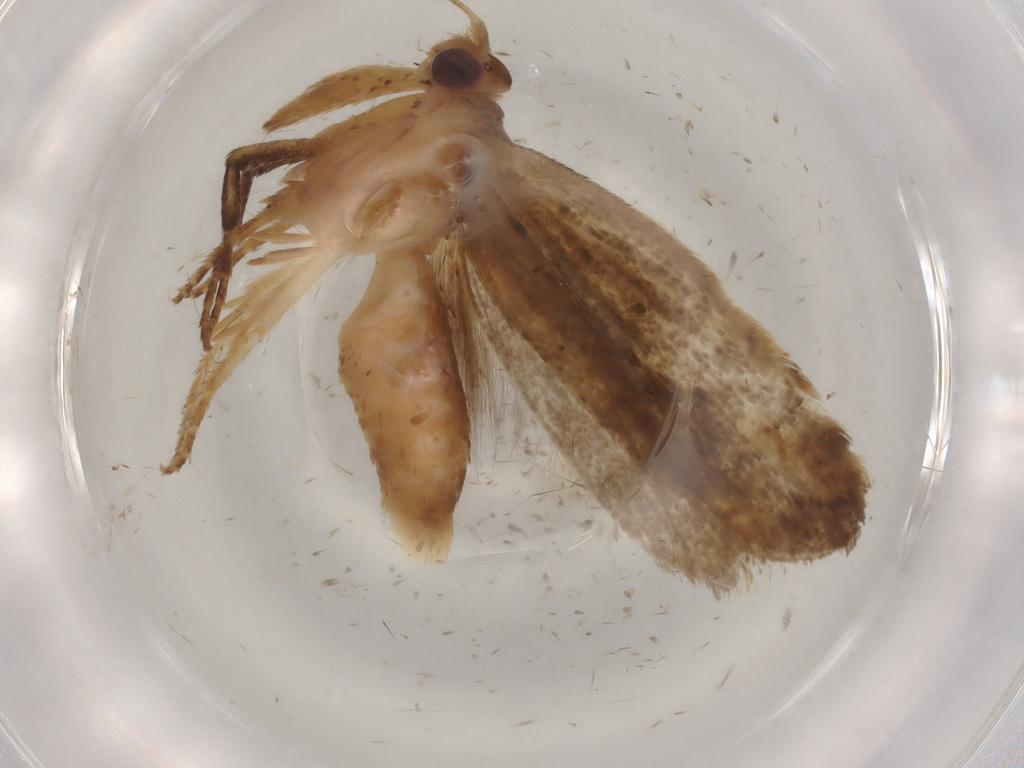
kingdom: Animalia
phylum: Arthropoda
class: Insecta
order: Lepidoptera
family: Gelechiidae
